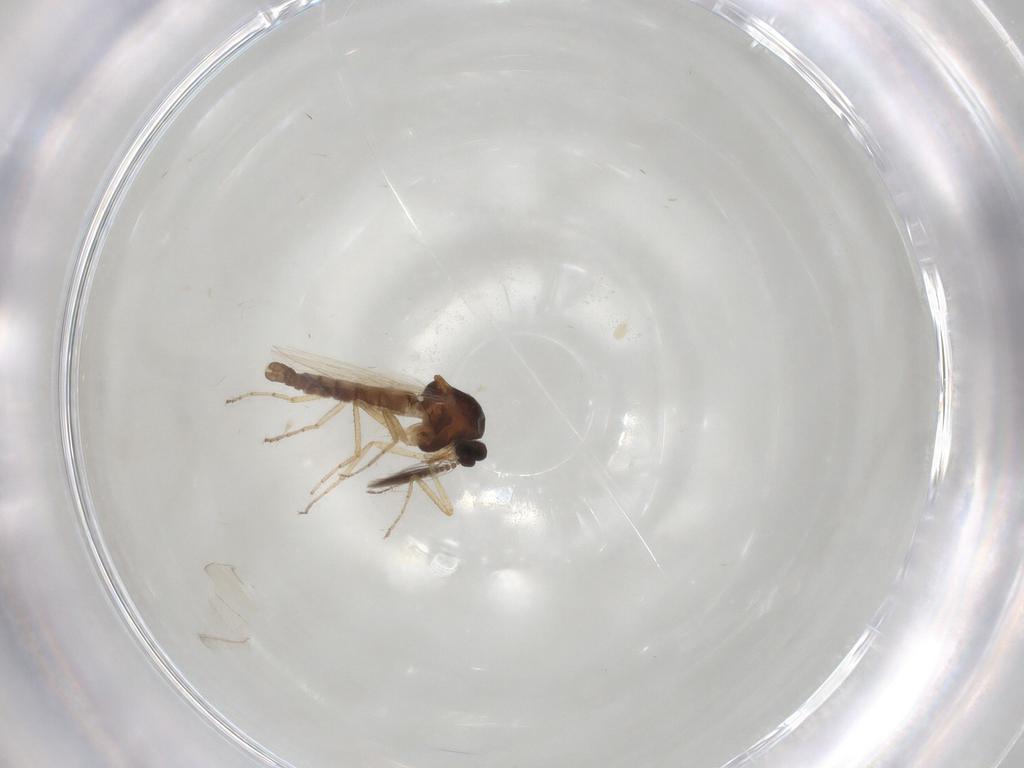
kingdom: Animalia
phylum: Arthropoda
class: Insecta
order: Diptera
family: Ceratopogonidae
